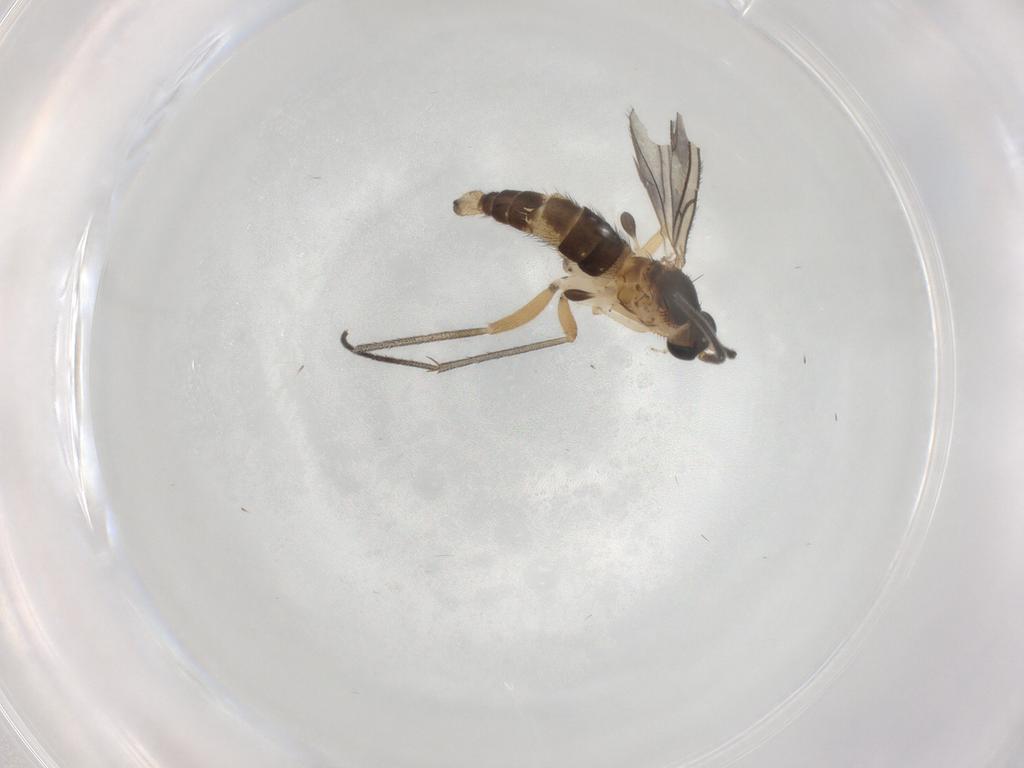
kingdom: Animalia
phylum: Arthropoda
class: Insecta
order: Diptera
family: Sciaridae
